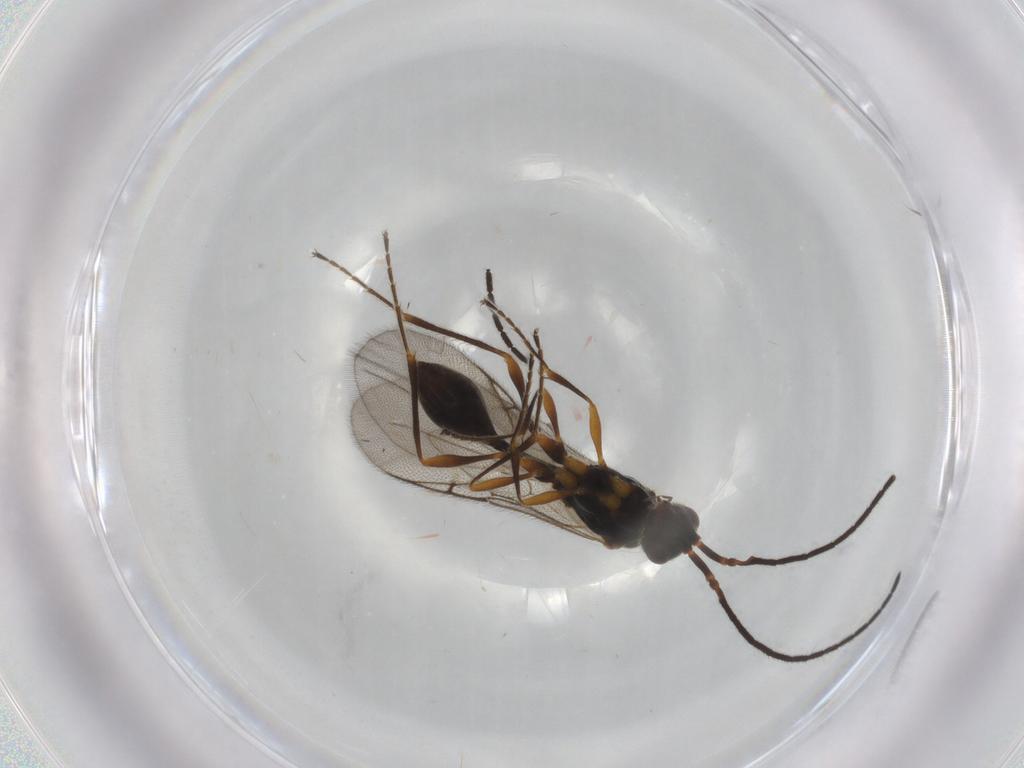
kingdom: Animalia
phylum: Arthropoda
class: Insecta
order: Hymenoptera
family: Diapriidae
